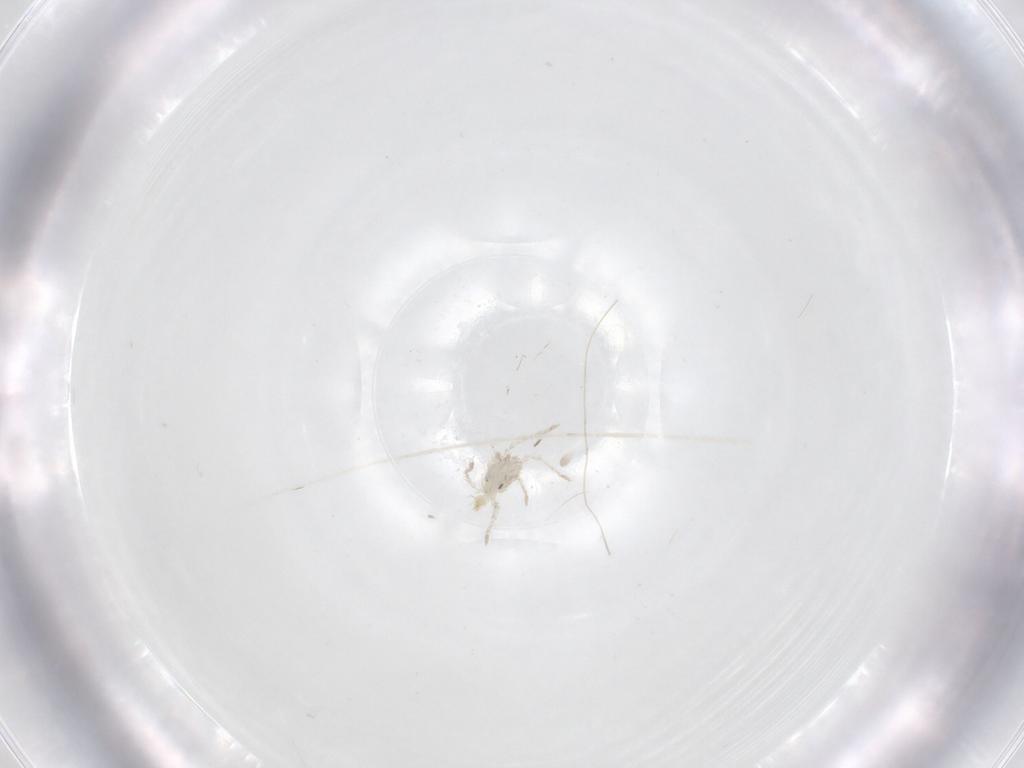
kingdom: Animalia
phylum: Arthropoda
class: Arachnida
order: Trombidiformes
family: Smarididae
